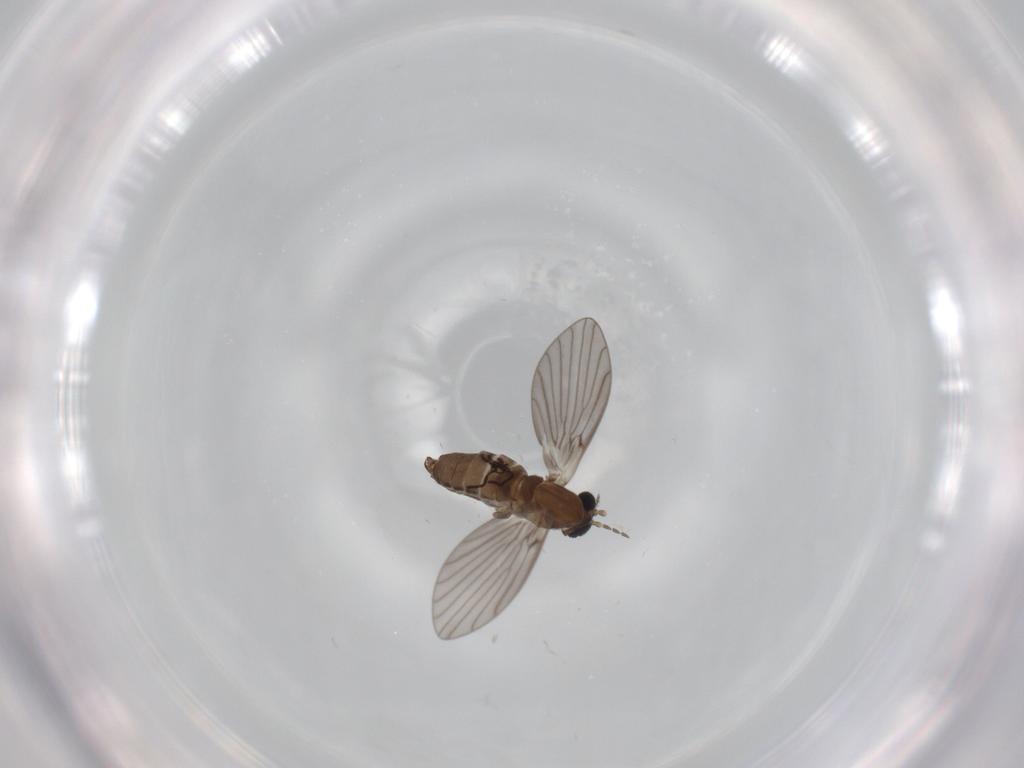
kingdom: Animalia
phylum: Arthropoda
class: Insecta
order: Diptera
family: Psychodidae
